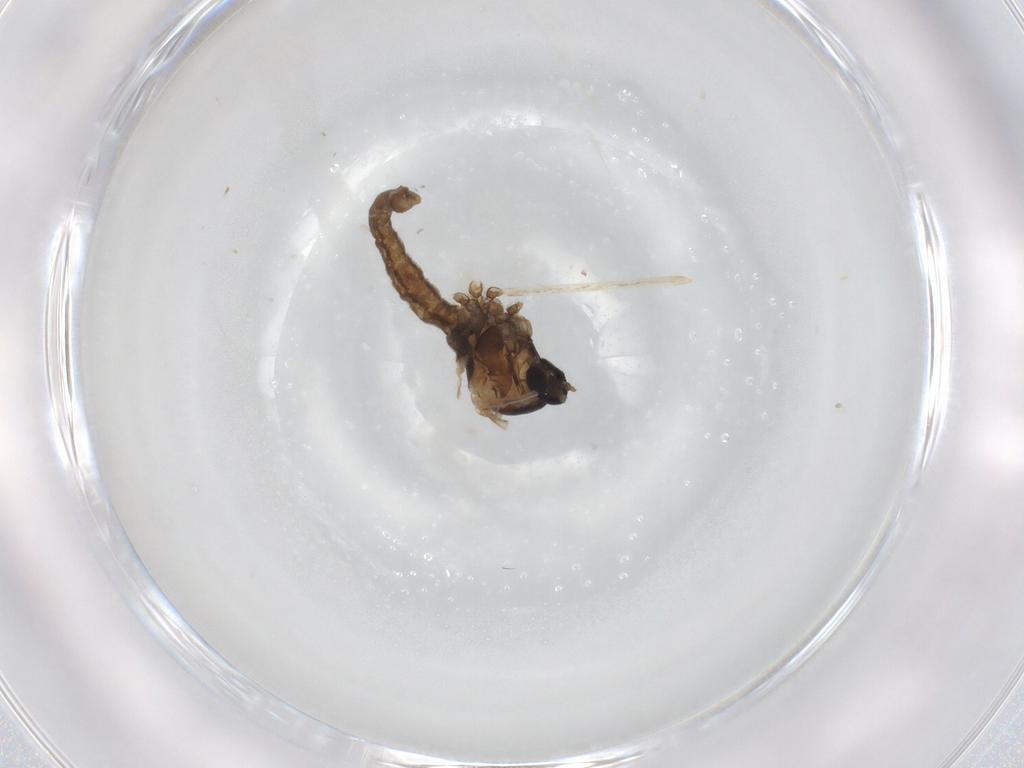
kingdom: Animalia
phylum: Arthropoda
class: Insecta
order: Diptera
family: Cecidomyiidae
